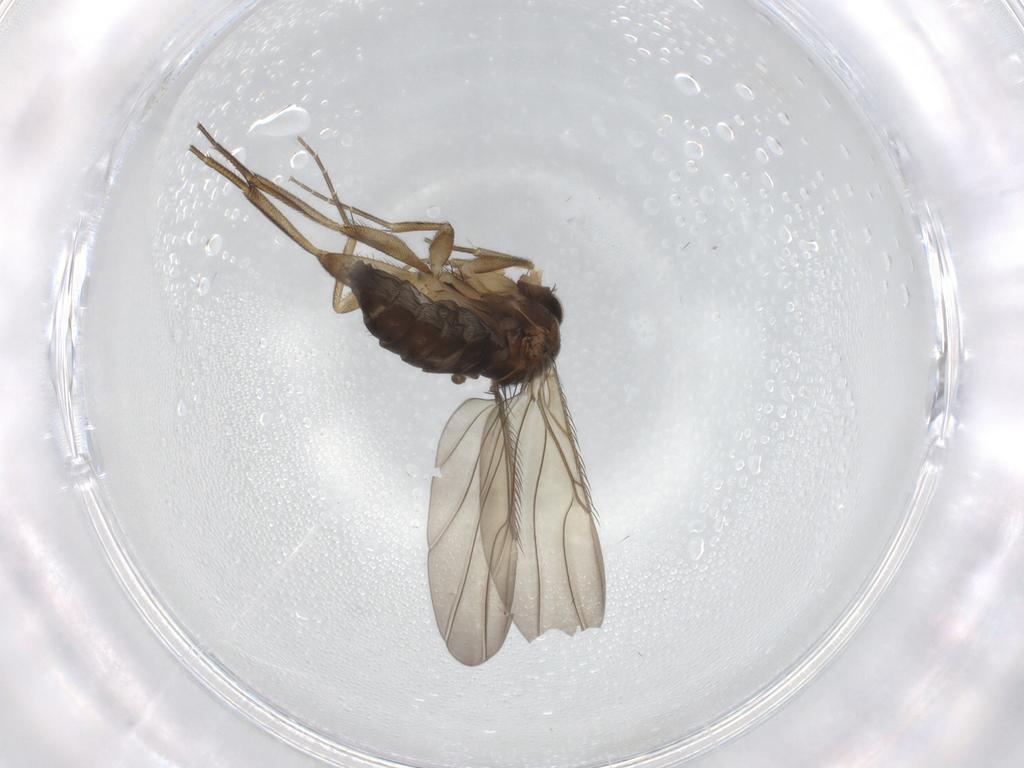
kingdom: Animalia
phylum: Arthropoda
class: Insecta
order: Diptera
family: Phoridae
